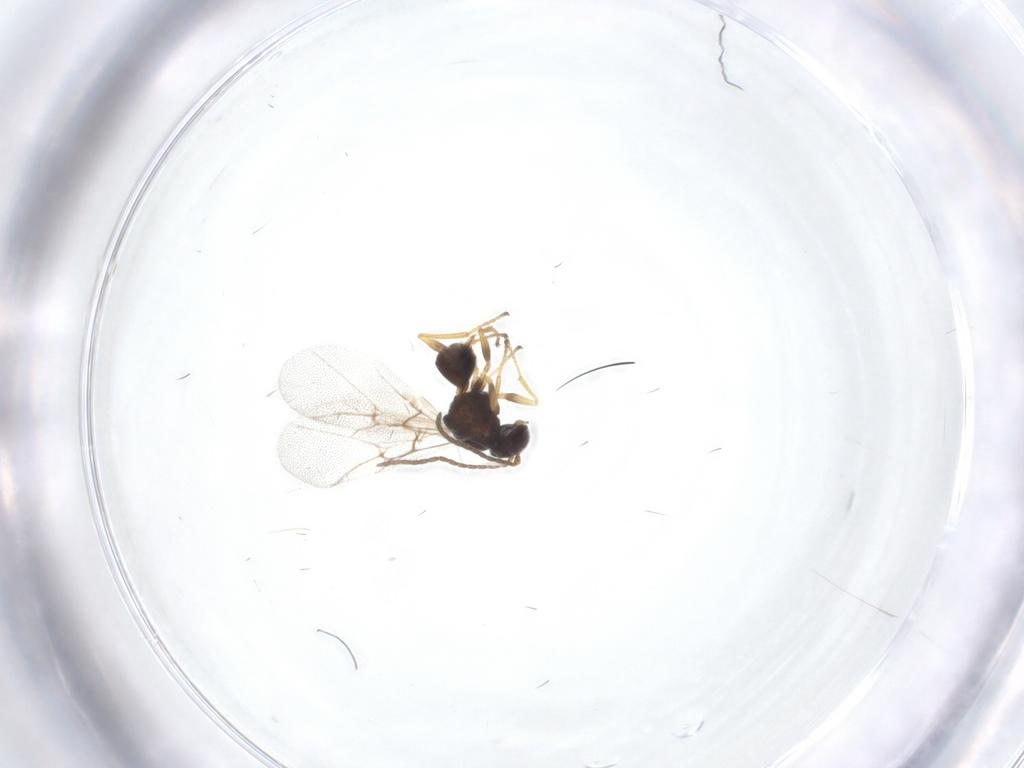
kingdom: Animalia
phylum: Arthropoda
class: Insecta
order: Hymenoptera
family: Cynipidae
